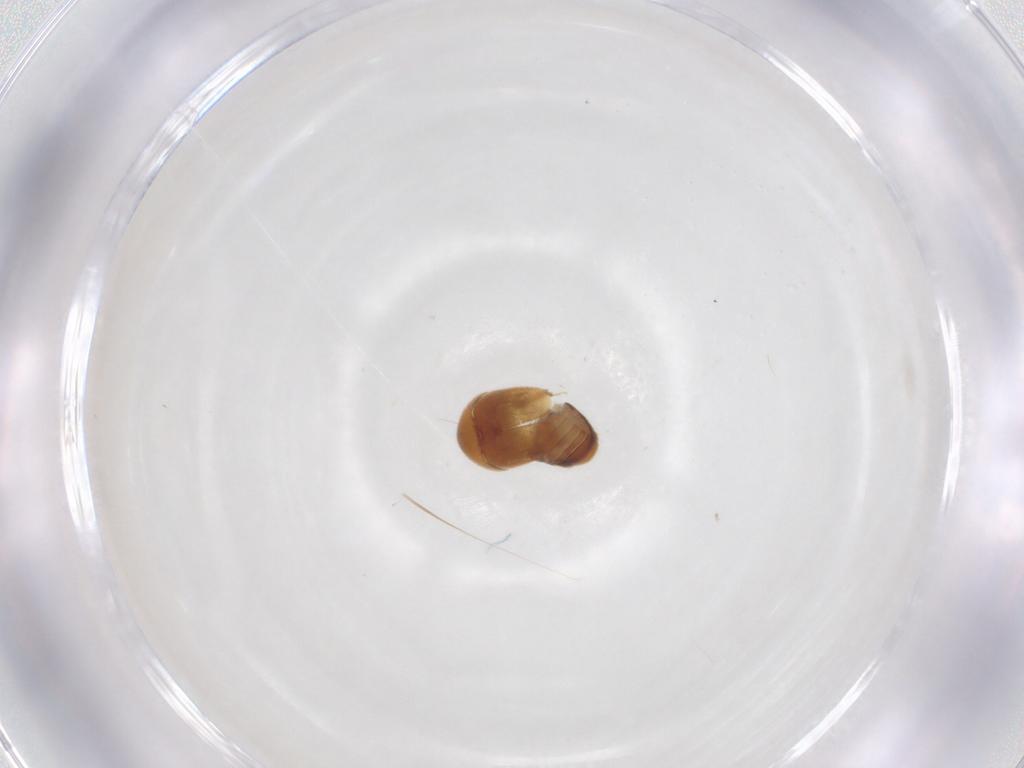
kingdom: Animalia
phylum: Arthropoda
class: Insecta
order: Coleoptera
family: Corylophidae
